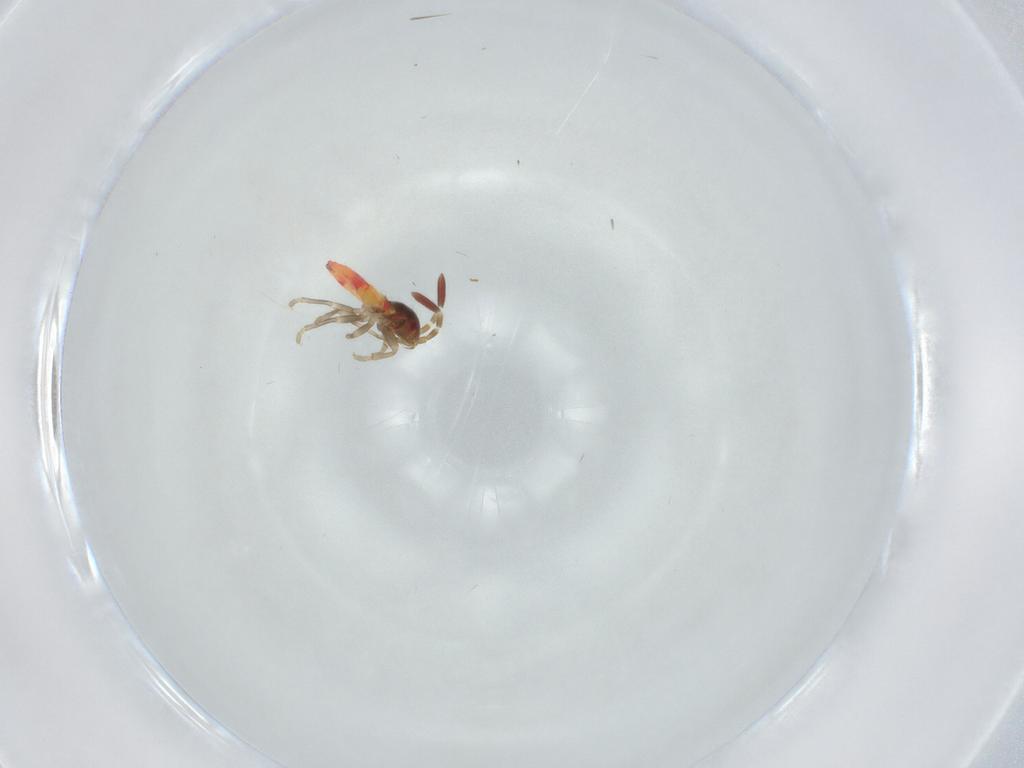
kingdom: Animalia
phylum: Arthropoda
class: Insecta
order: Hemiptera
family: Rhyparochromidae
